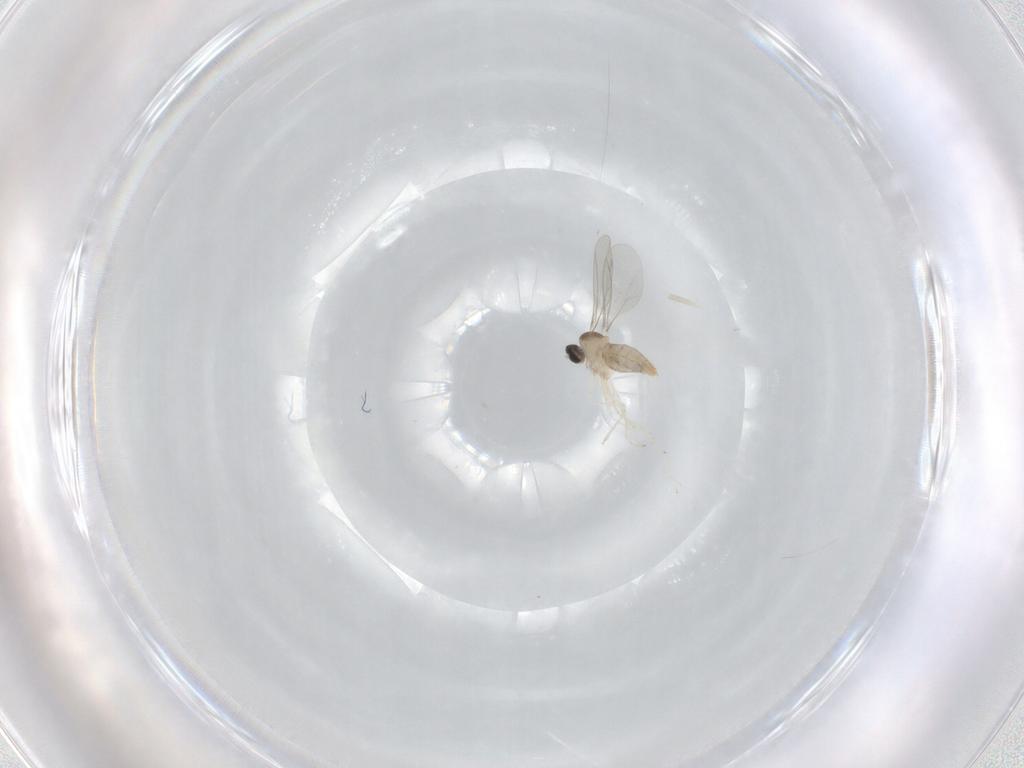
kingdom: Animalia
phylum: Arthropoda
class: Insecta
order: Diptera
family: Cecidomyiidae
